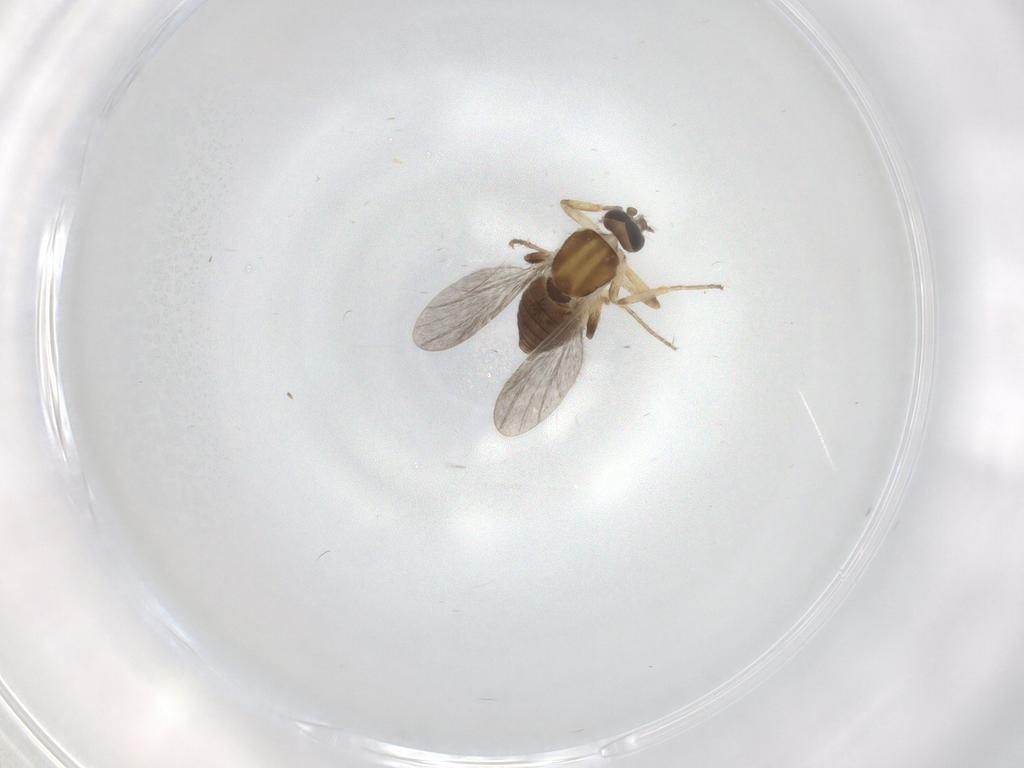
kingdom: Animalia
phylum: Arthropoda
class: Insecta
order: Diptera
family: Ceratopogonidae
